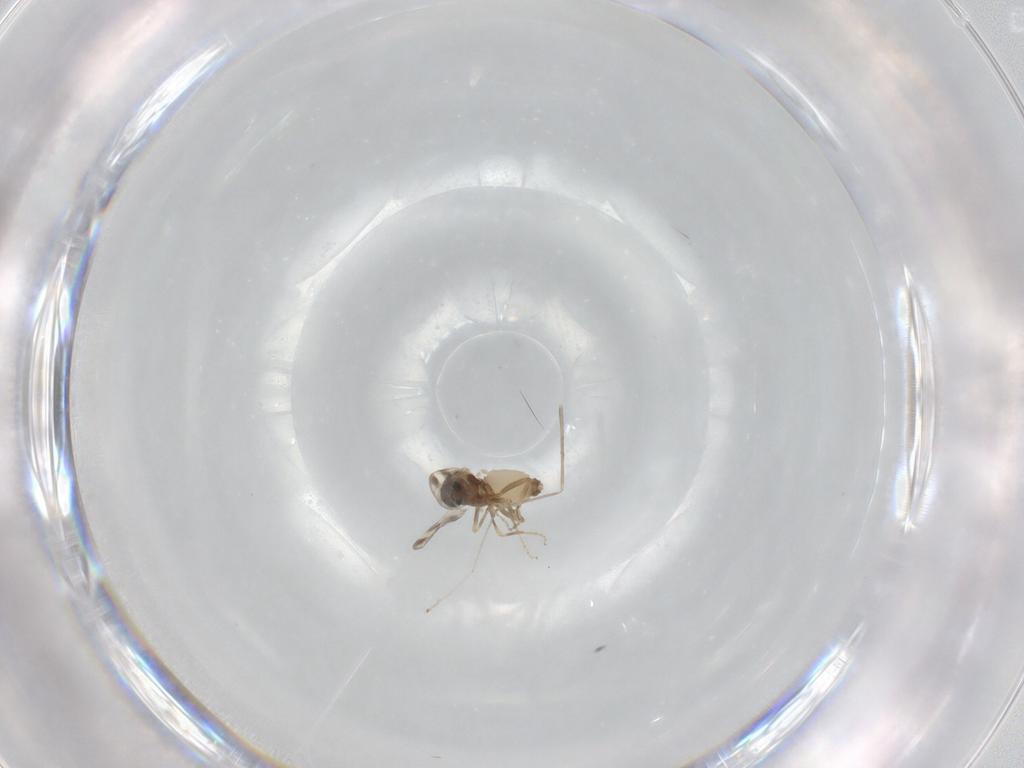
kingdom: Animalia
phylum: Arthropoda
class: Insecta
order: Diptera
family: Ceratopogonidae
